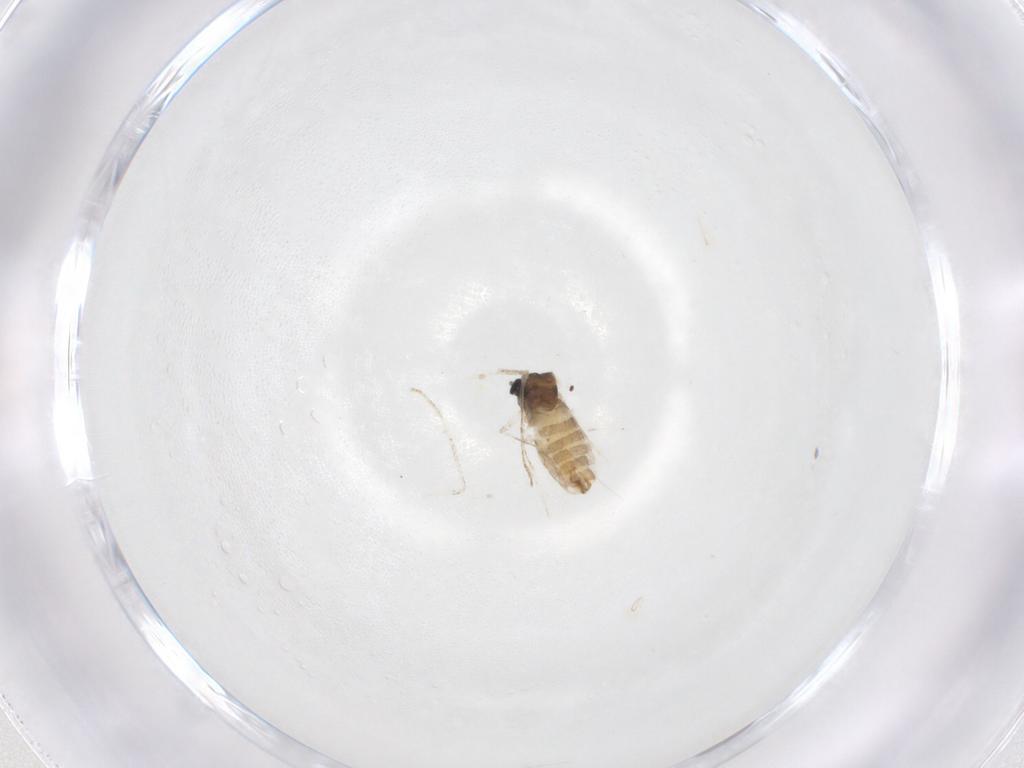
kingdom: Animalia
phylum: Arthropoda
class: Insecta
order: Diptera
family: Cecidomyiidae
